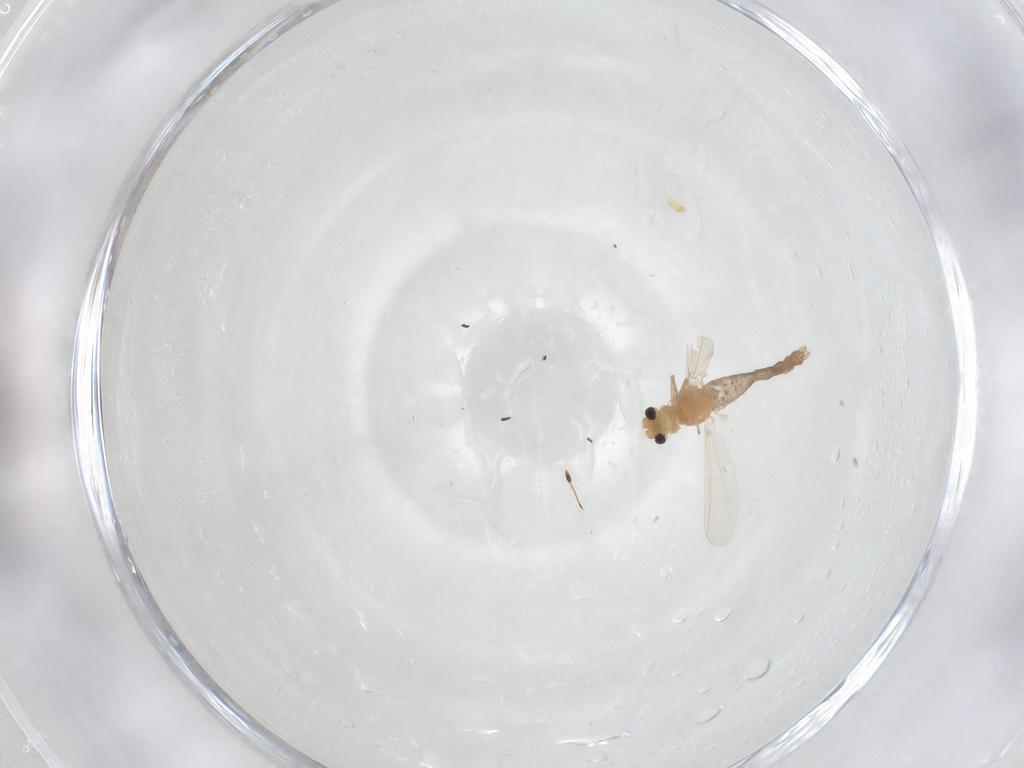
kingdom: Animalia
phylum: Arthropoda
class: Insecta
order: Diptera
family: Chironomidae
